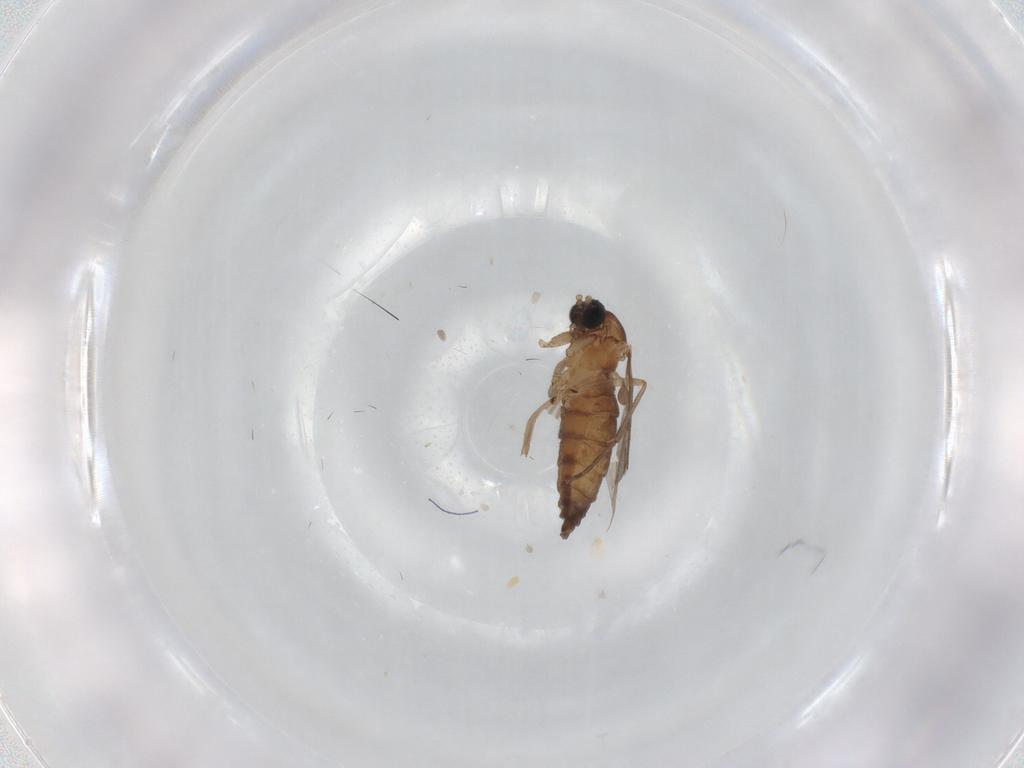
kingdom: Animalia
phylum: Arthropoda
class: Insecta
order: Diptera
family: Sciaridae
